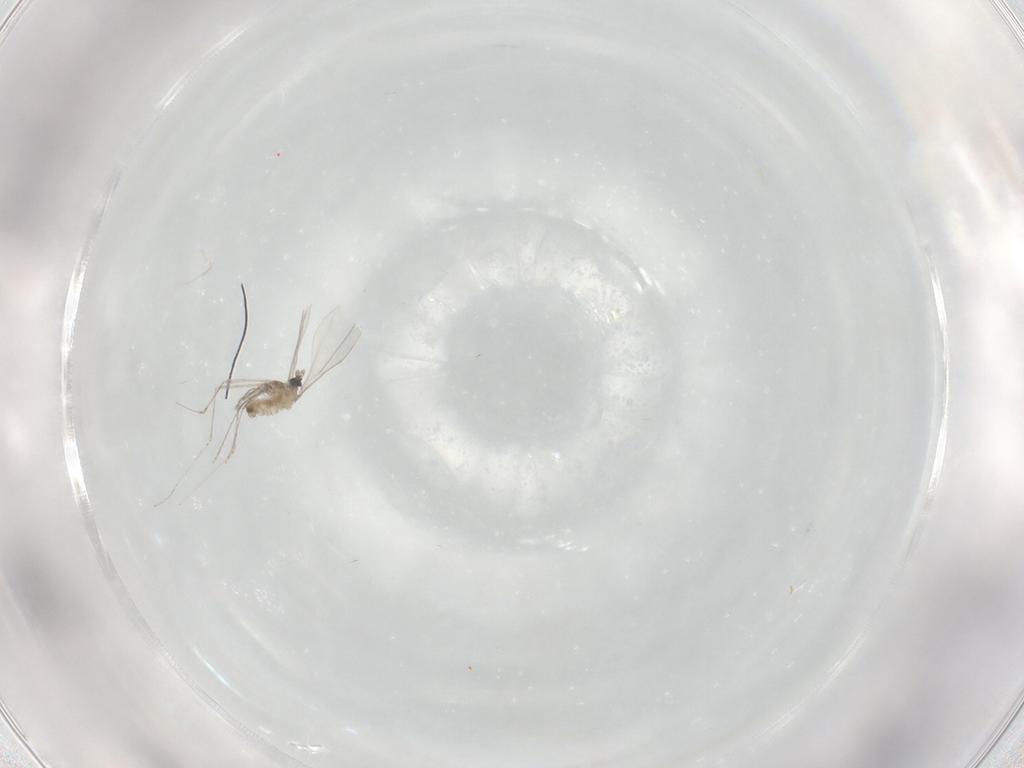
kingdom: Animalia
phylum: Arthropoda
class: Insecta
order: Diptera
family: Cecidomyiidae
